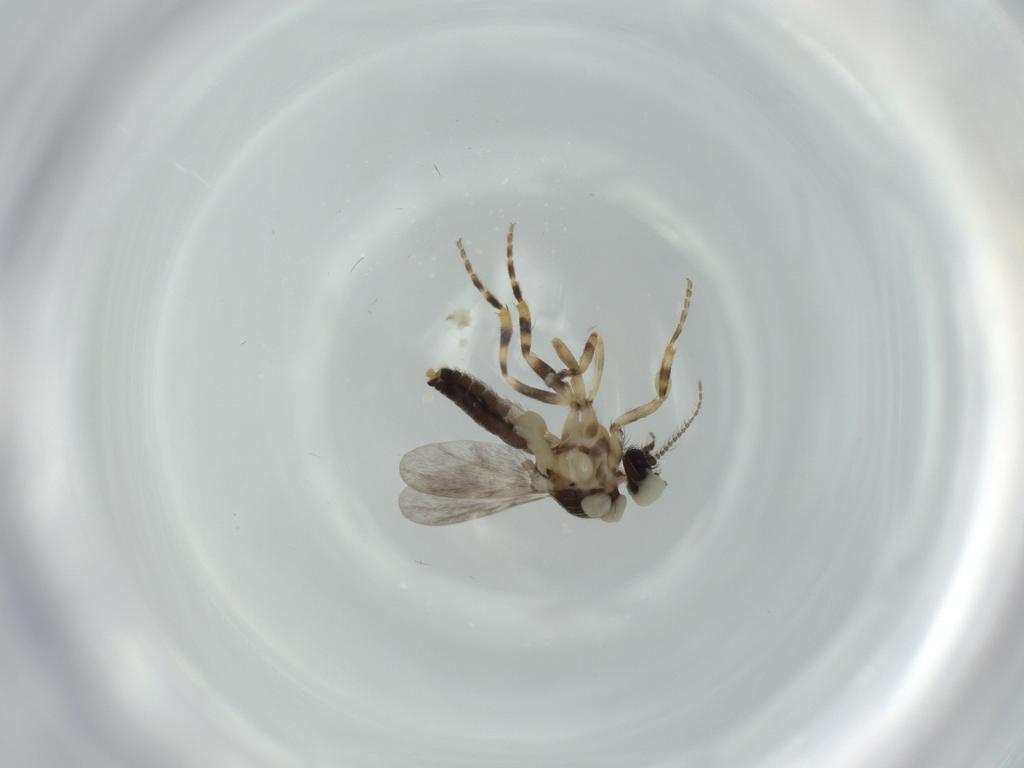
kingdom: Animalia
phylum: Arthropoda
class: Insecta
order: Diptera
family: Ceratopogonidae
